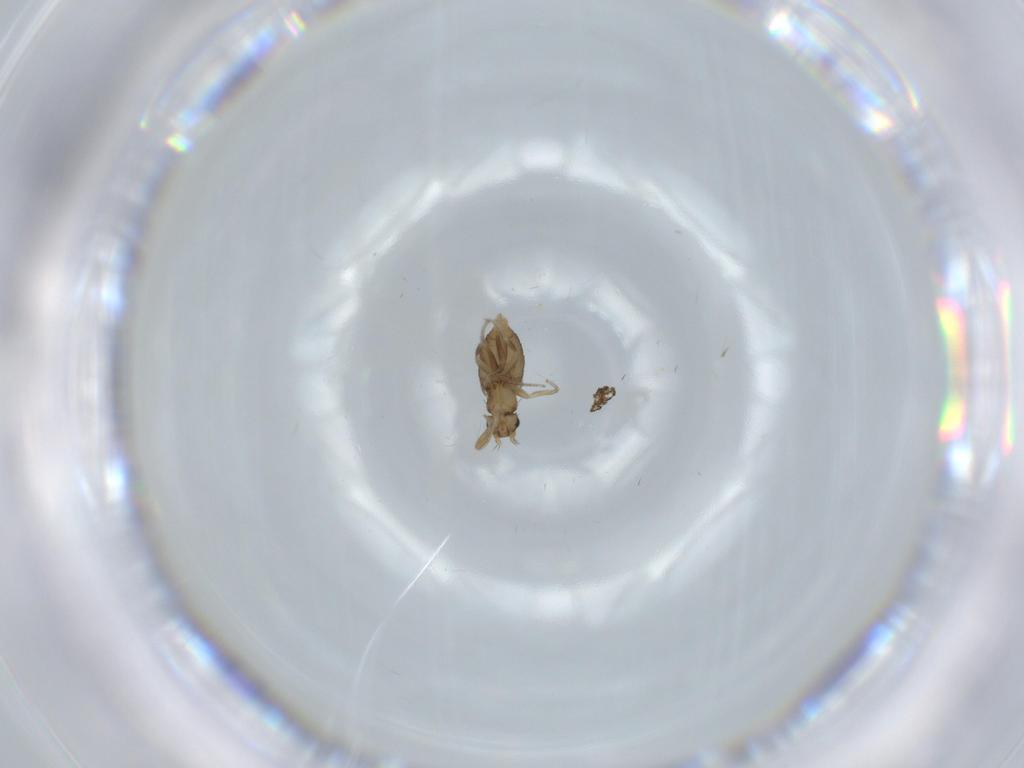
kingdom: Animalia
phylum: Arthropoda
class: Insecta
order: Diptera
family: Phoridae
